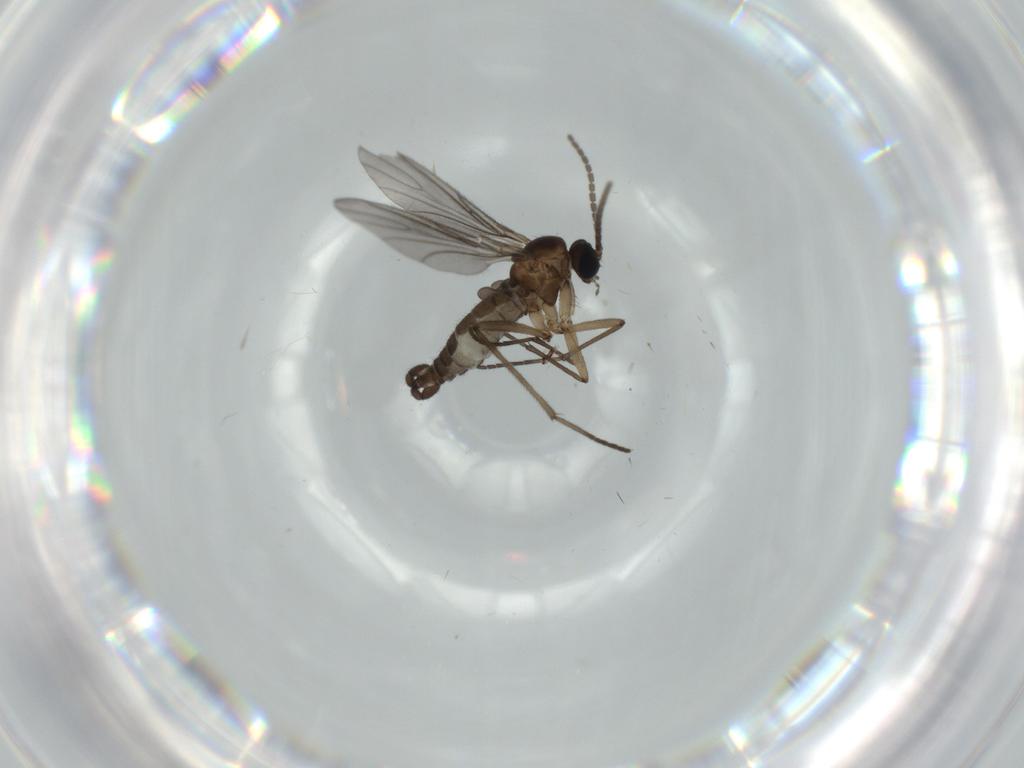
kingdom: Animalia
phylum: Arthropoda
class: Insecta
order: Diptera
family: Sciaridae
